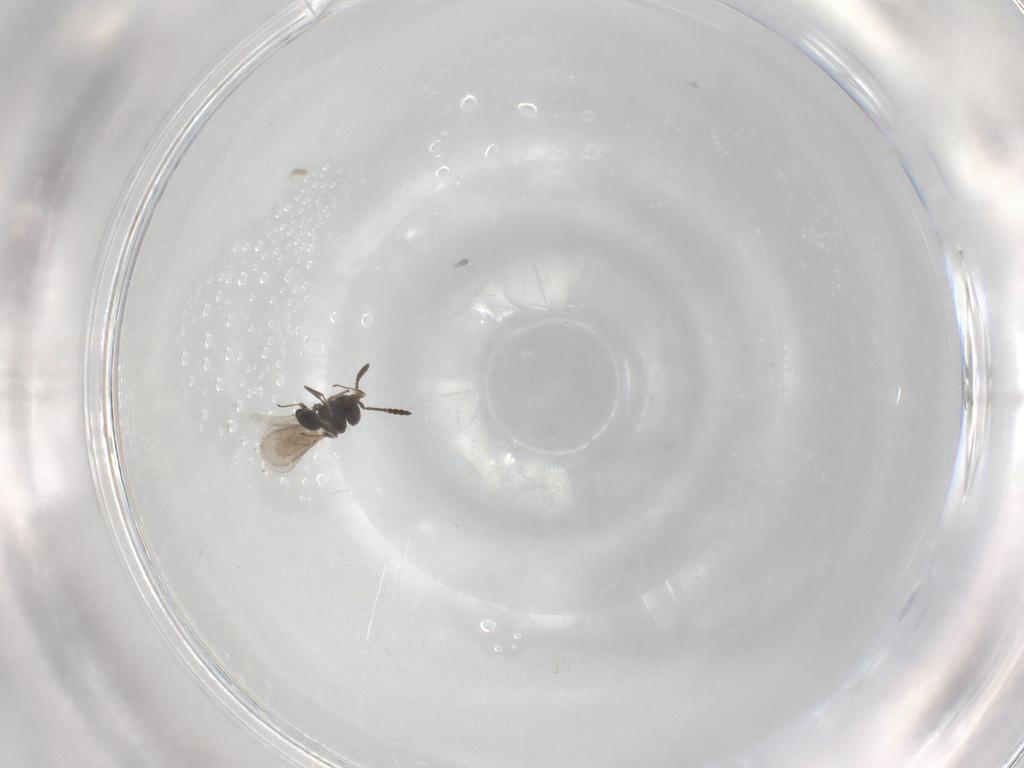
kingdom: Animalia
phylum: Arthropoda
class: Insecta
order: Hymenoptera
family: Scelionidae
